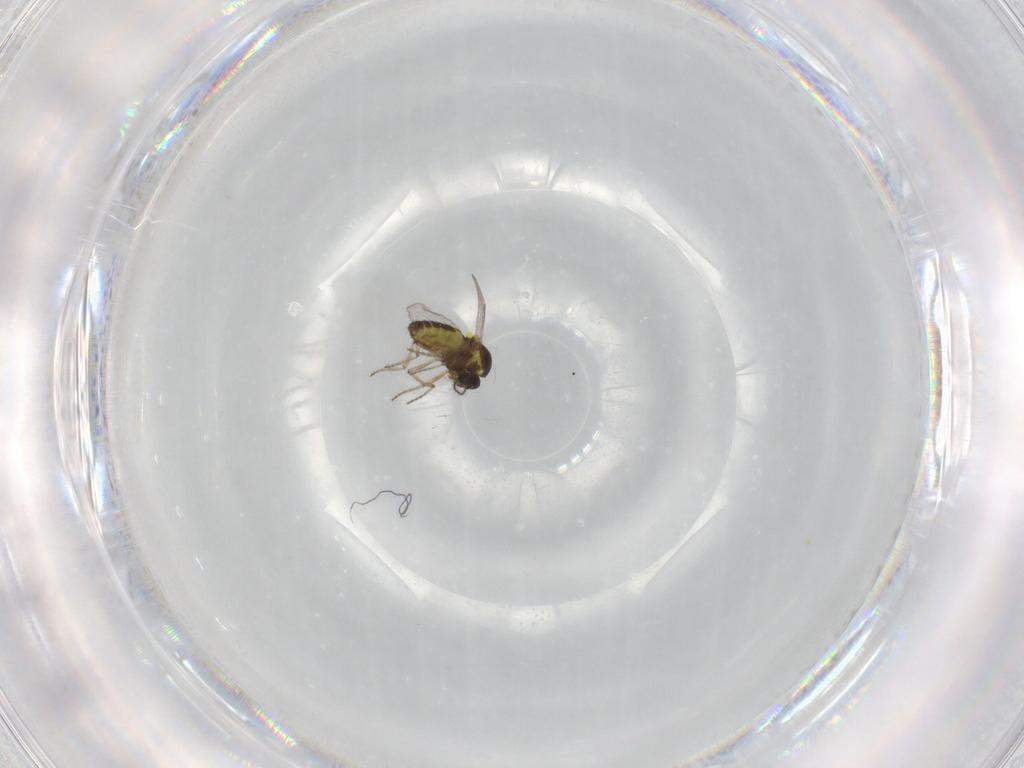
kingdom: Animalia
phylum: Arthropoda
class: Insecta
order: Diptera
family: Ceratopogonidae
